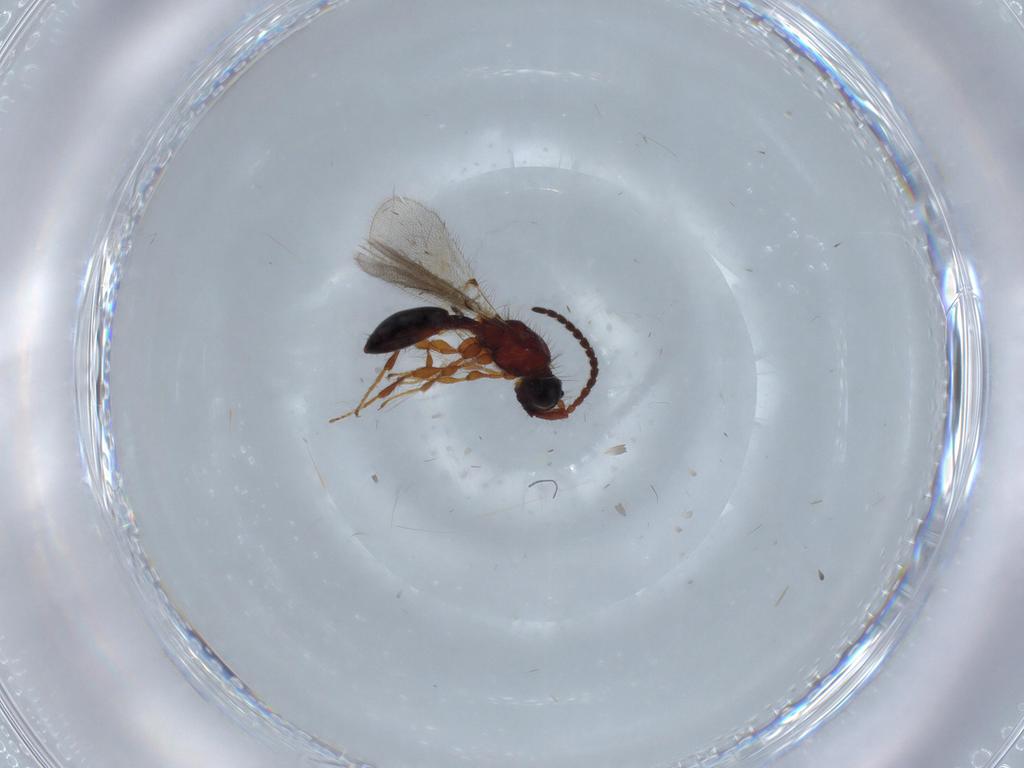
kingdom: Animalia
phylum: Arthropoda
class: Insecta
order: Hymenoptera
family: Diapriidae
